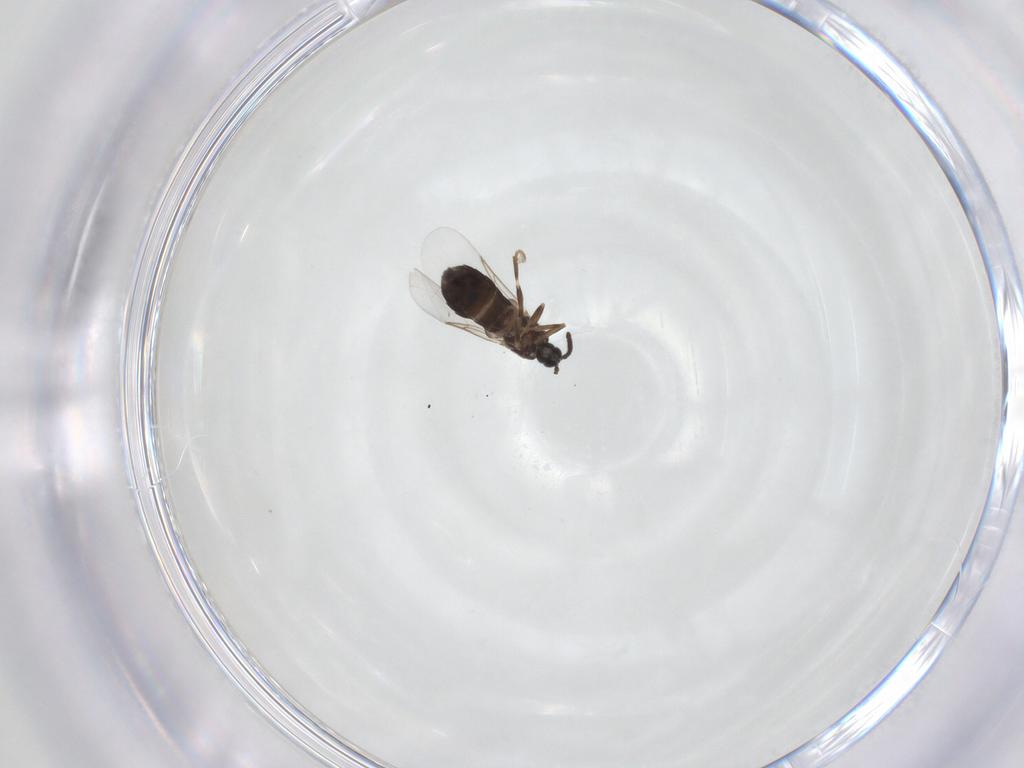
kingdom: Animalia
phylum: Arthropoda
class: Insecta
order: Diptera
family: Scatopsidae
